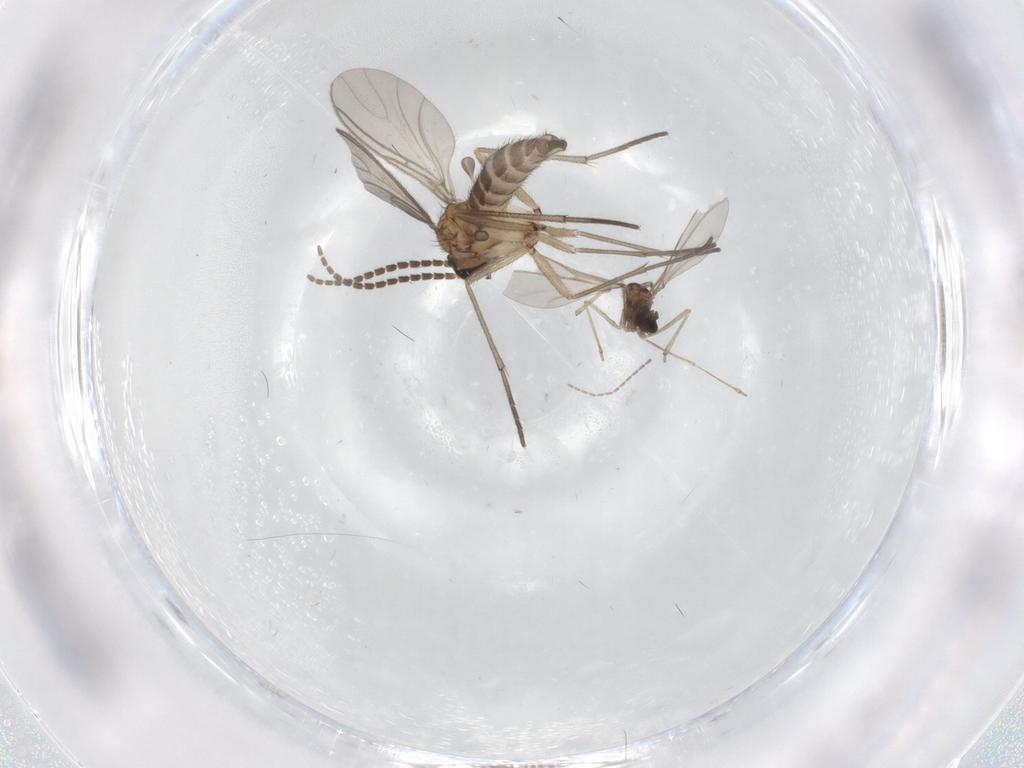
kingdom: Animalia
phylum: Arthropoda
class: Insecta
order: Diptera
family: Sciaridae
